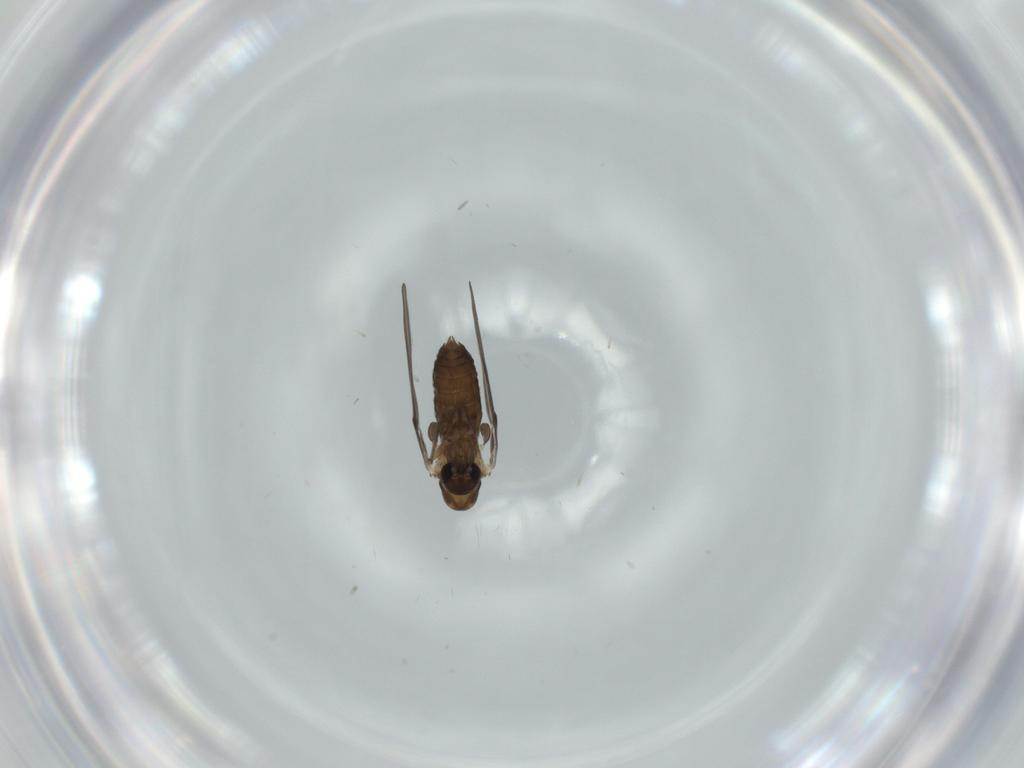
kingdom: Animalia
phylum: Arthropoda
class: Insecta
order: Diptera
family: Psychodidae
